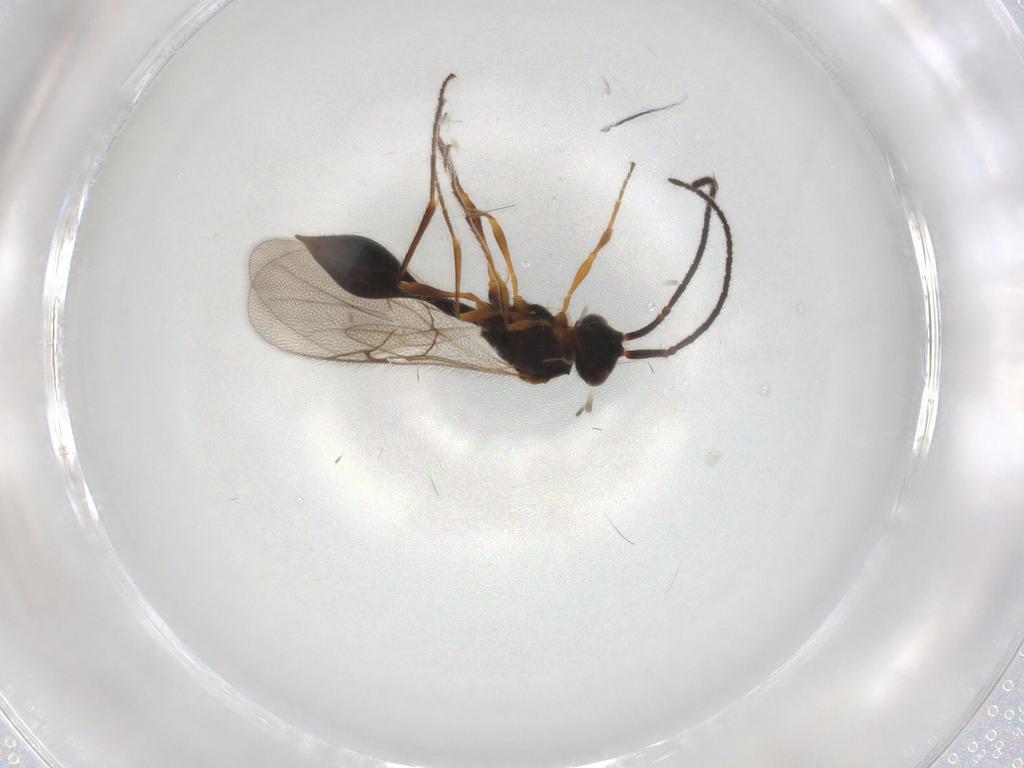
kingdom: Animalia
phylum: Arthropoda
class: Insecta
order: Hymenoptera
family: Diapriidae
